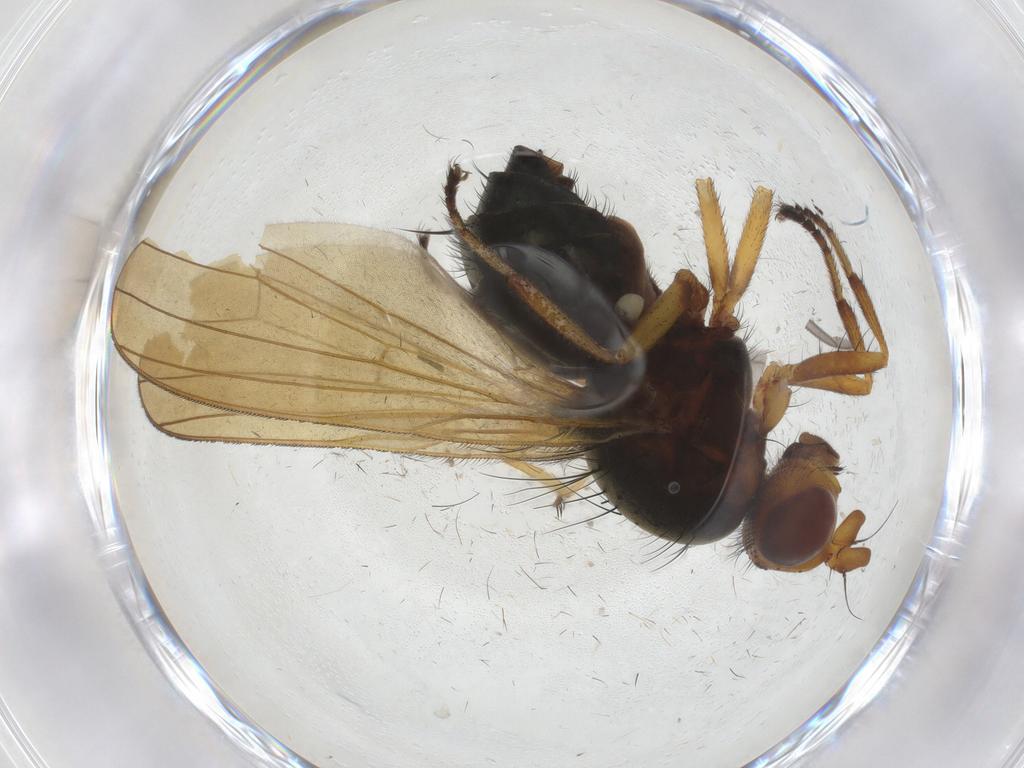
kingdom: Animalia
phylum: Arthropoda
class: Insecta
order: Diptera
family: Keroplatidae
